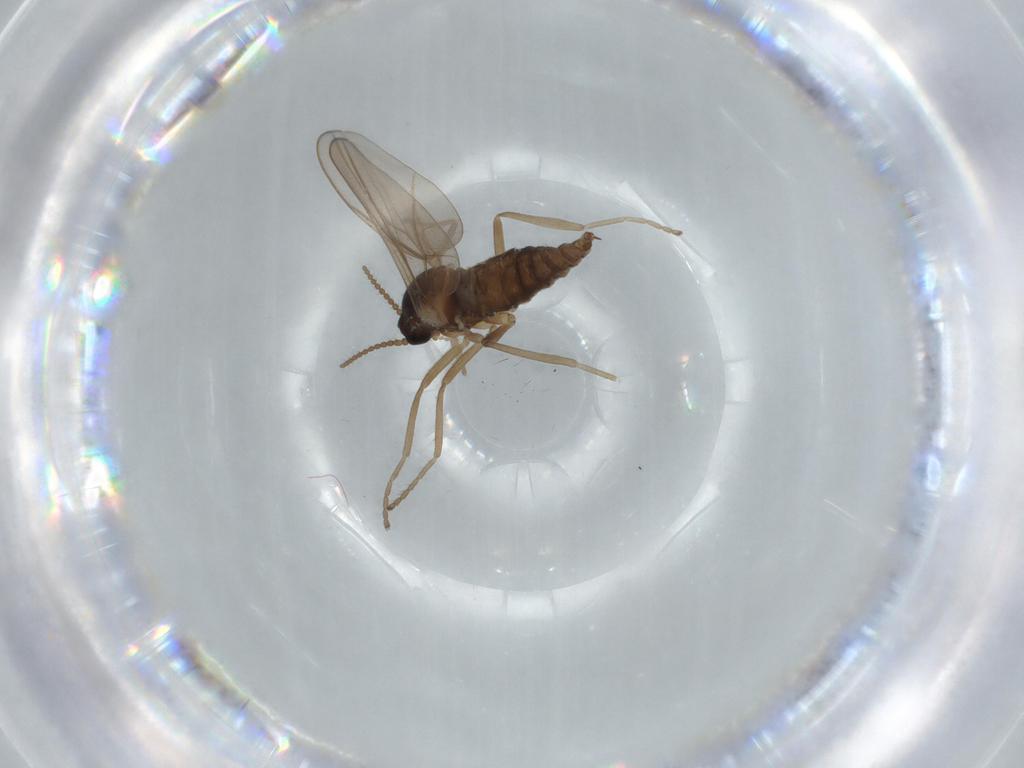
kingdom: Animalia
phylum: Arthropoda
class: Insecta
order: Diptera
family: Cecidomyiidae
